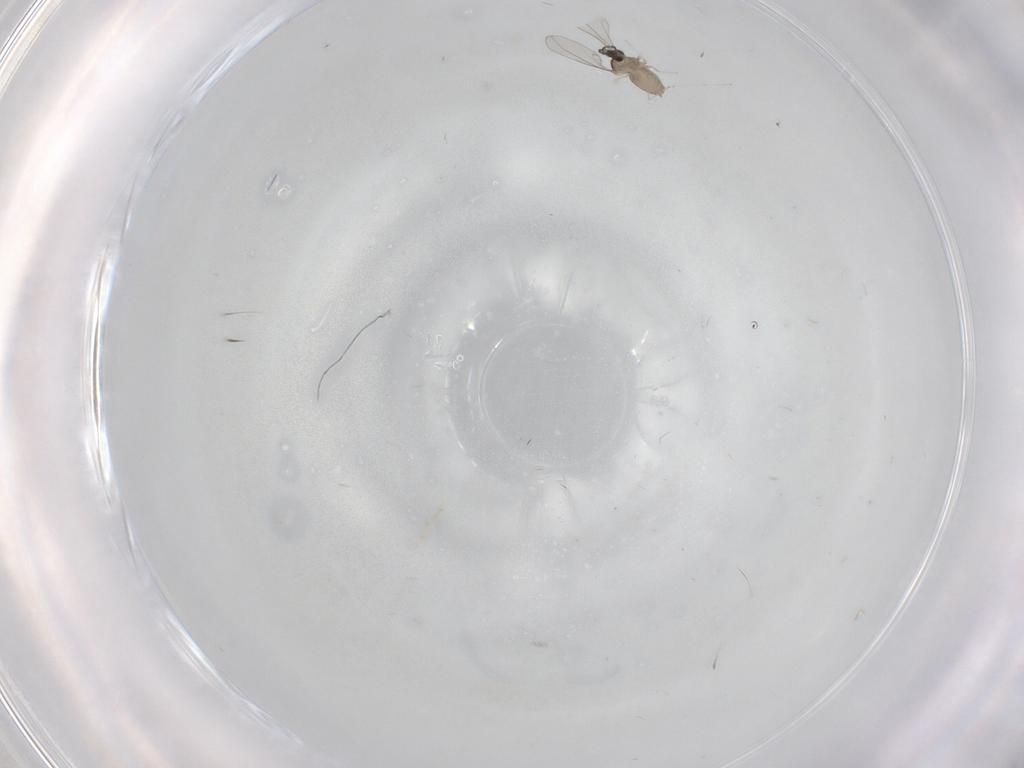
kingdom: Animalia
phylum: Arthropoda
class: Insecta
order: Diptera
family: Cecidomyiidae
